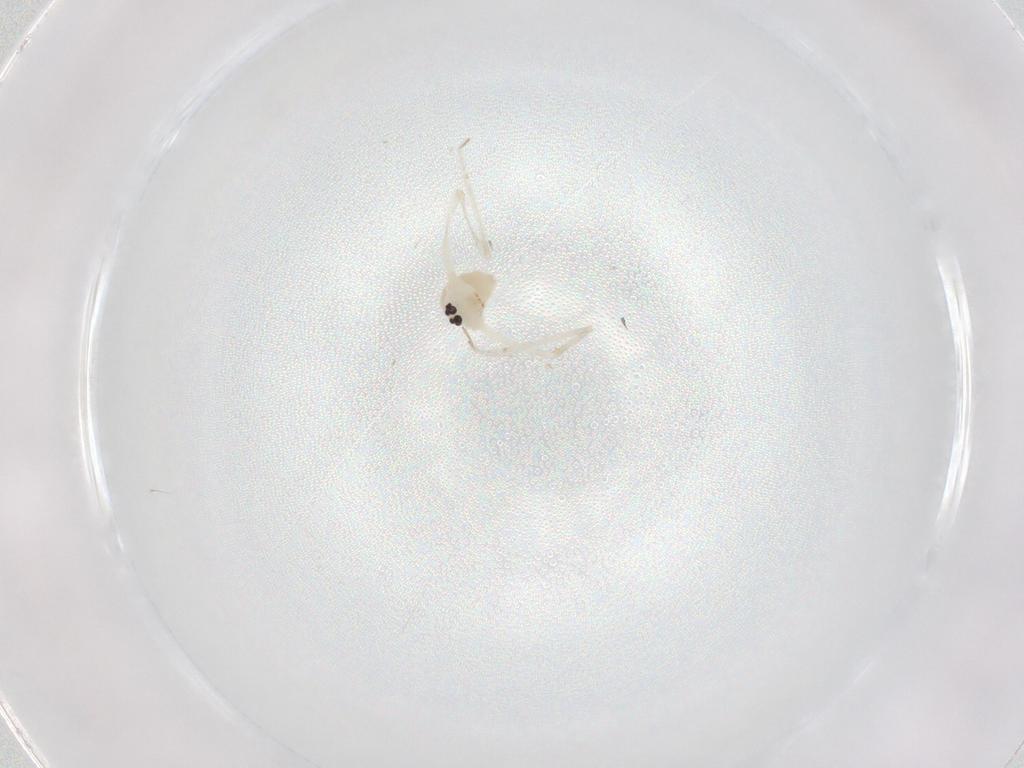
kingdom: Animalia
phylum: Arthropoda
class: Arachnida
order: Araneae
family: Pholcidae
